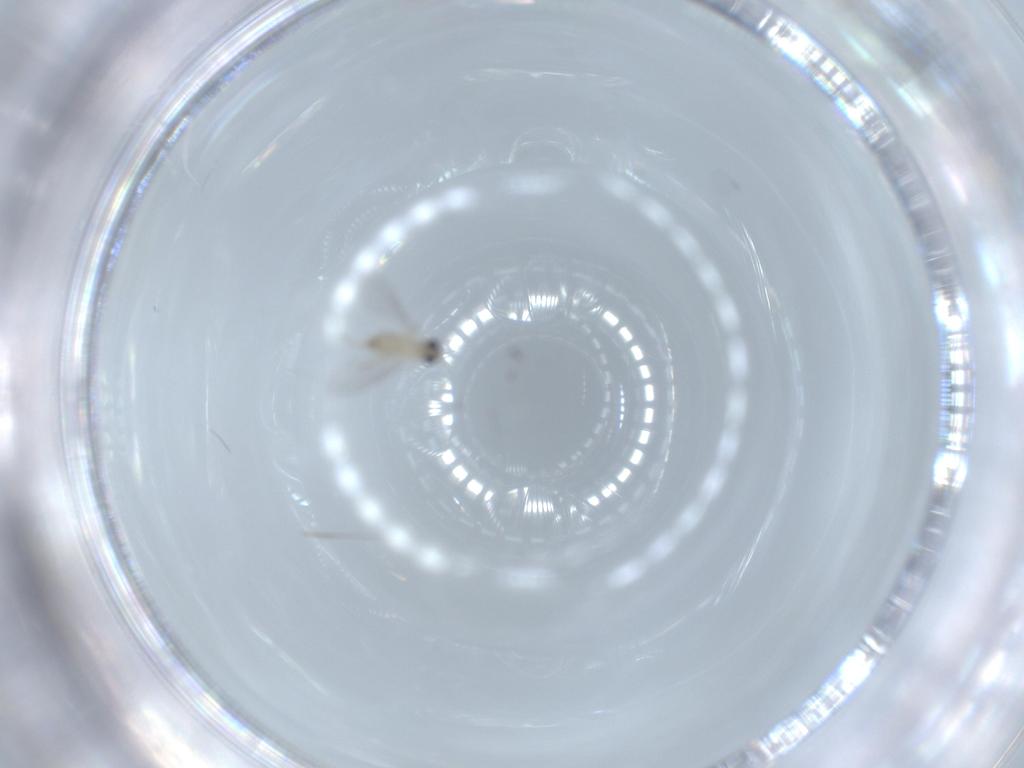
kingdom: Animalia
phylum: Arthropoda
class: Insecta
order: Diptera
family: Cecidomyiidae
